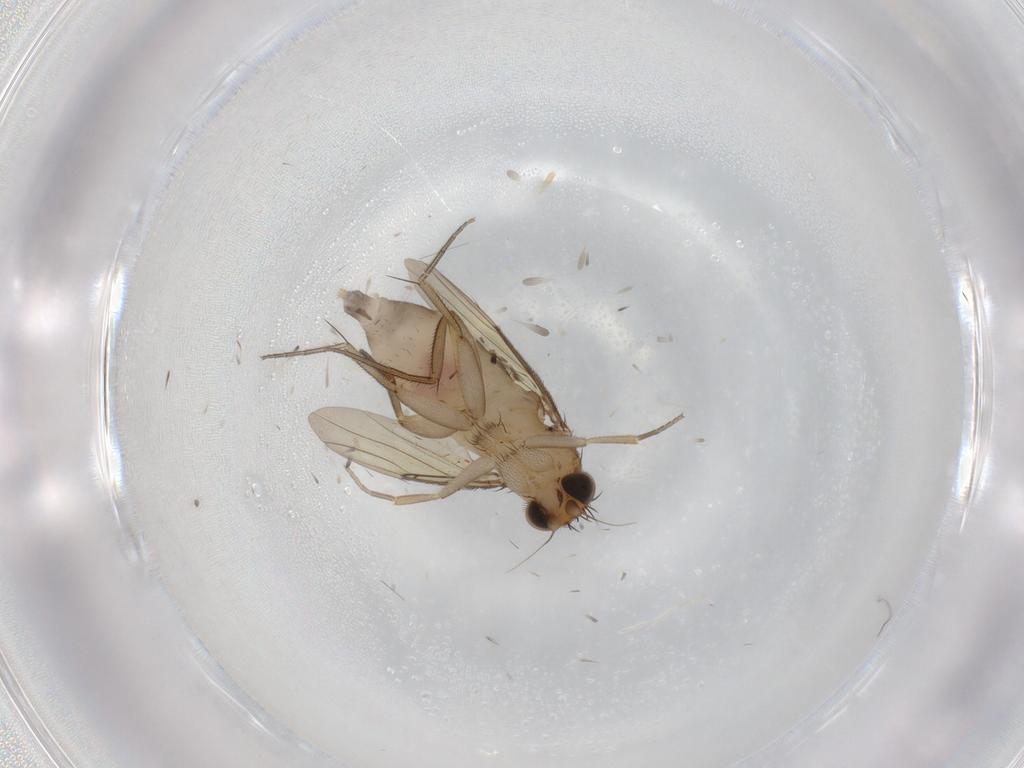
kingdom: Animalia
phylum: Arthropoda
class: Insecta
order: Diptera
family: Phoridae
